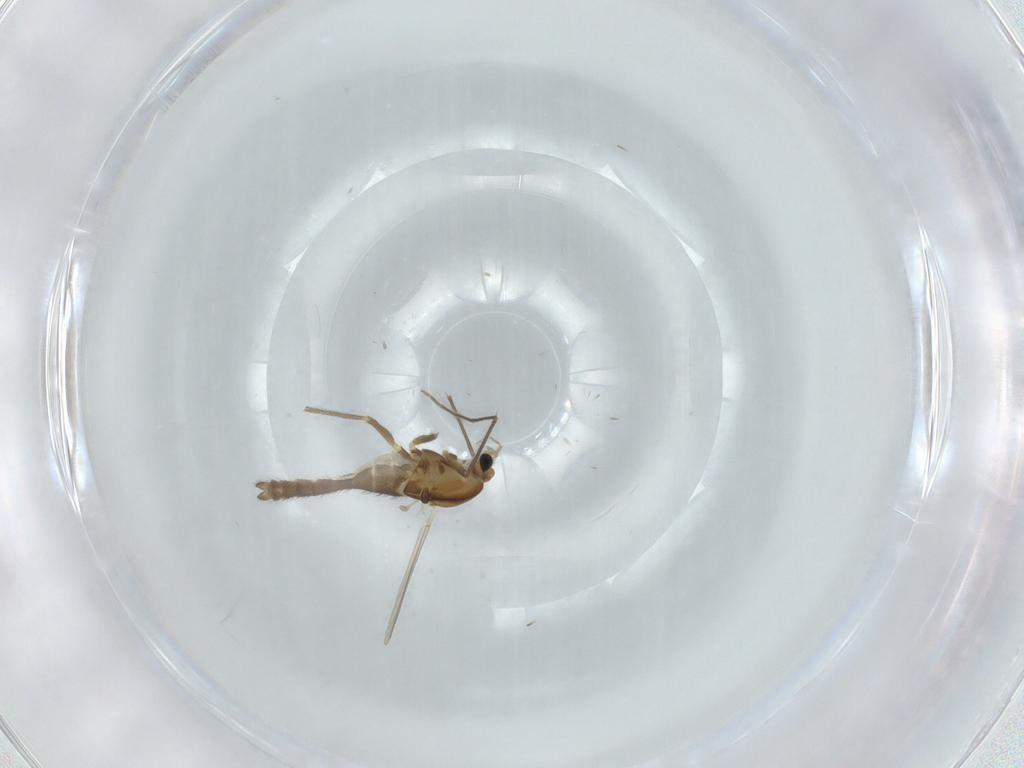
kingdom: Animalia
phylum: Arthropoda
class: Insecta
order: Diptera
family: Chironomidae
